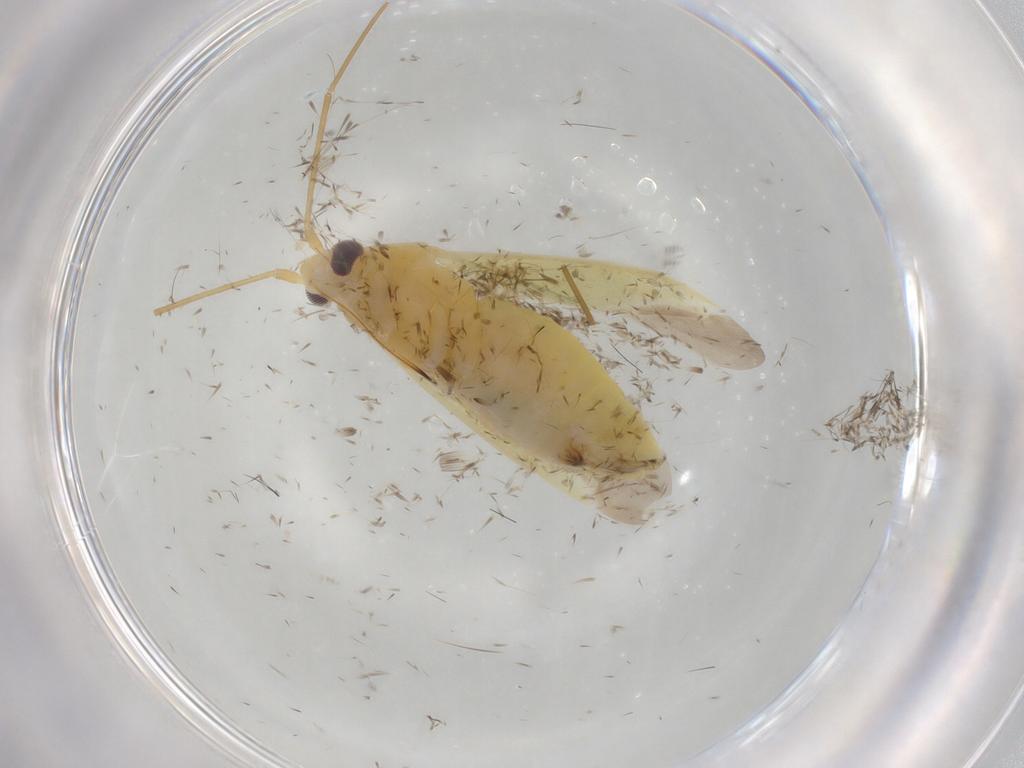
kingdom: Animalia
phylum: Arthropoda
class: Insecta
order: Hemiptera
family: Miridae
